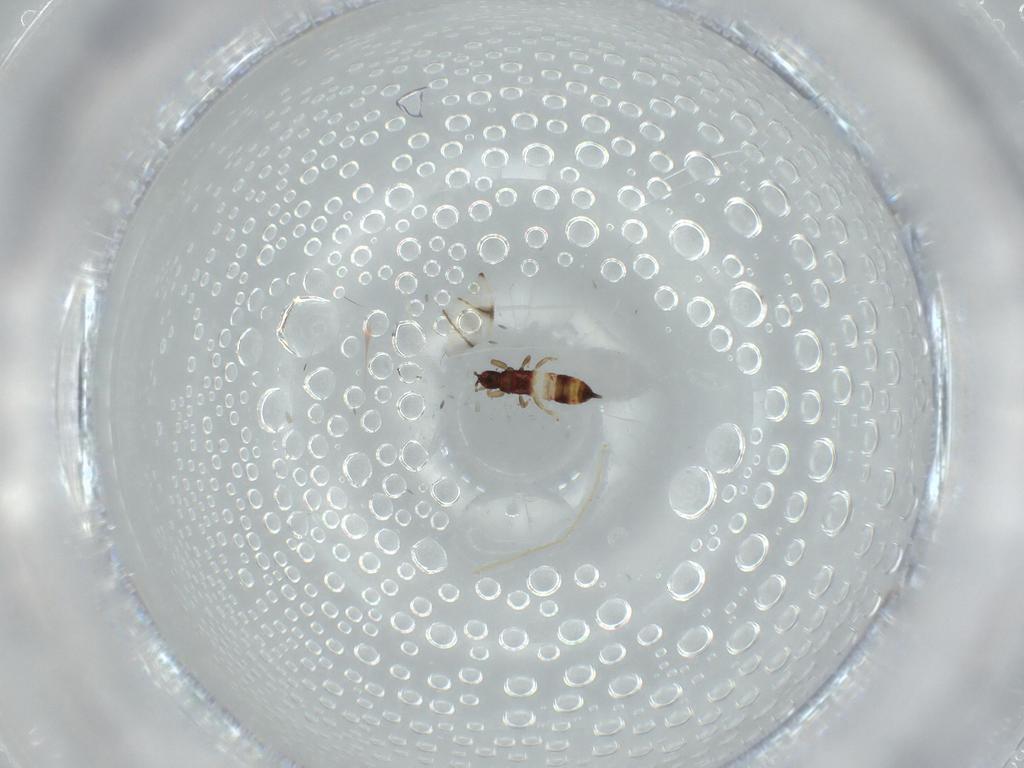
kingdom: Animalia
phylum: Arthropoda
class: Insecta
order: Thysanoptera
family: Phlaeothripidae
